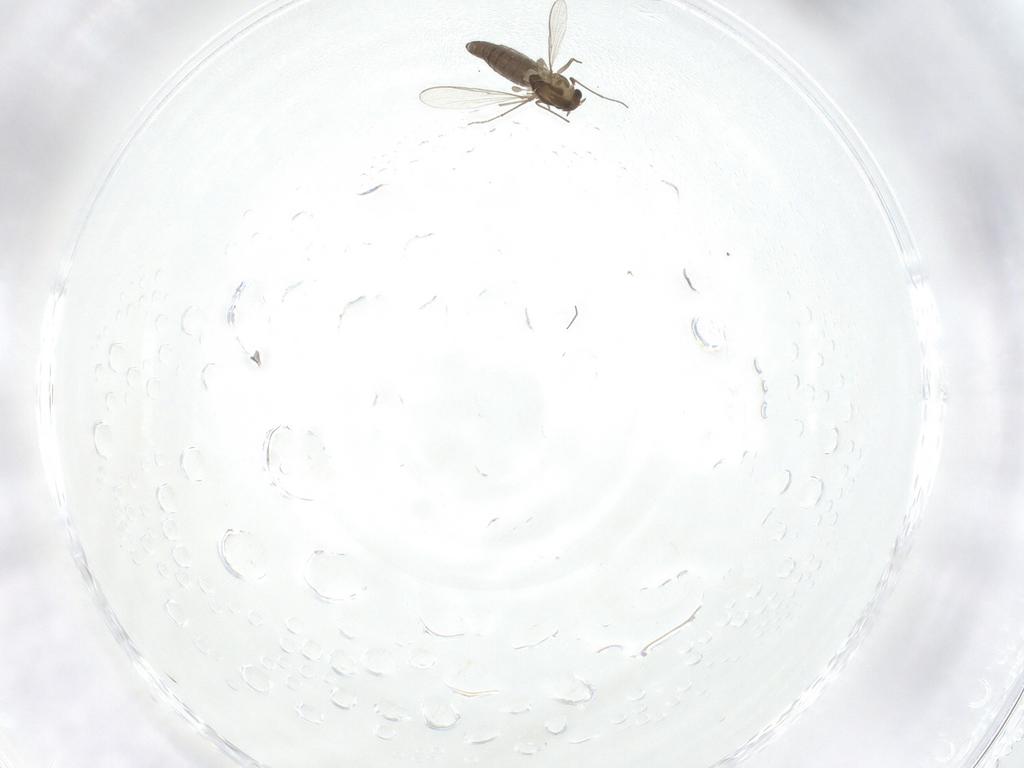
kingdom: Animalia
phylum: Arthropoda
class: Insecta
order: Diptera
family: Chironomidae
